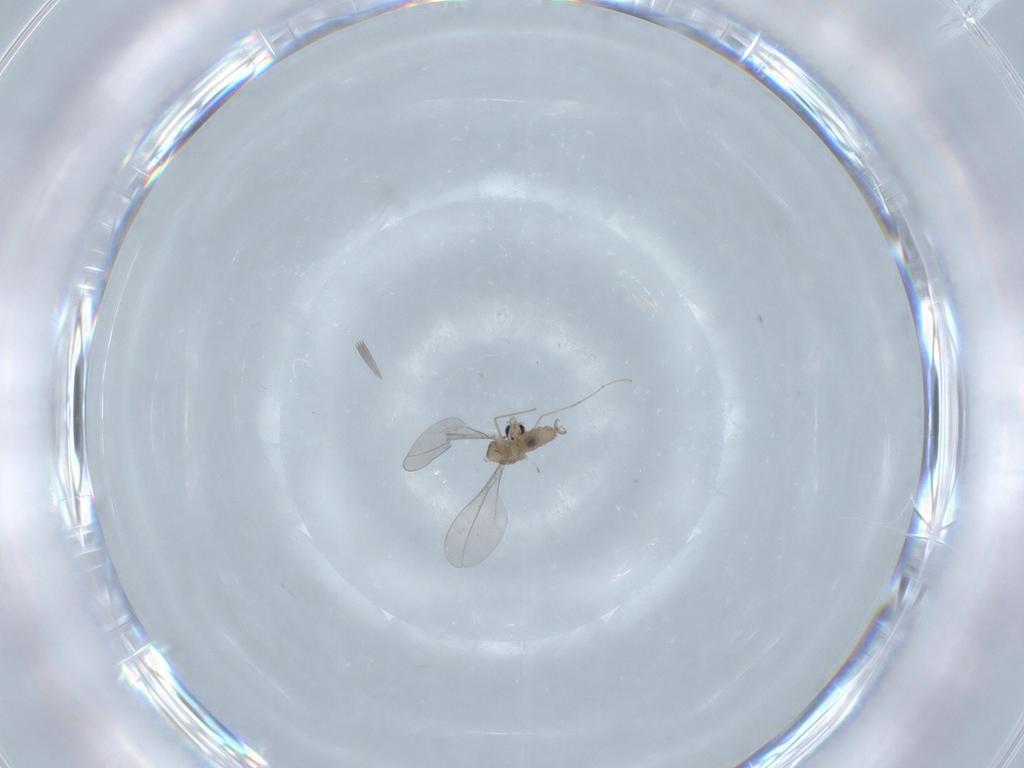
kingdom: Animalia
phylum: Arthropoda
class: Insecta
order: Diptera
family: Cecidomyiidae
